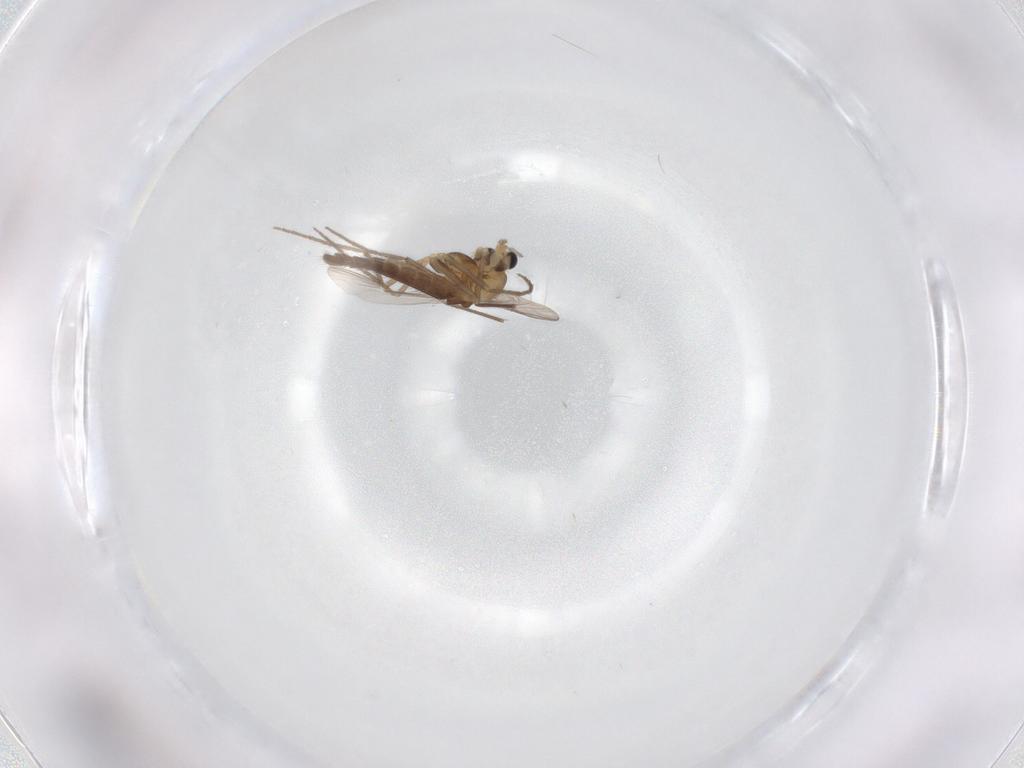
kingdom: Animalia
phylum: Arthropoda
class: Insecta
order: Diptera
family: Chironomidae
